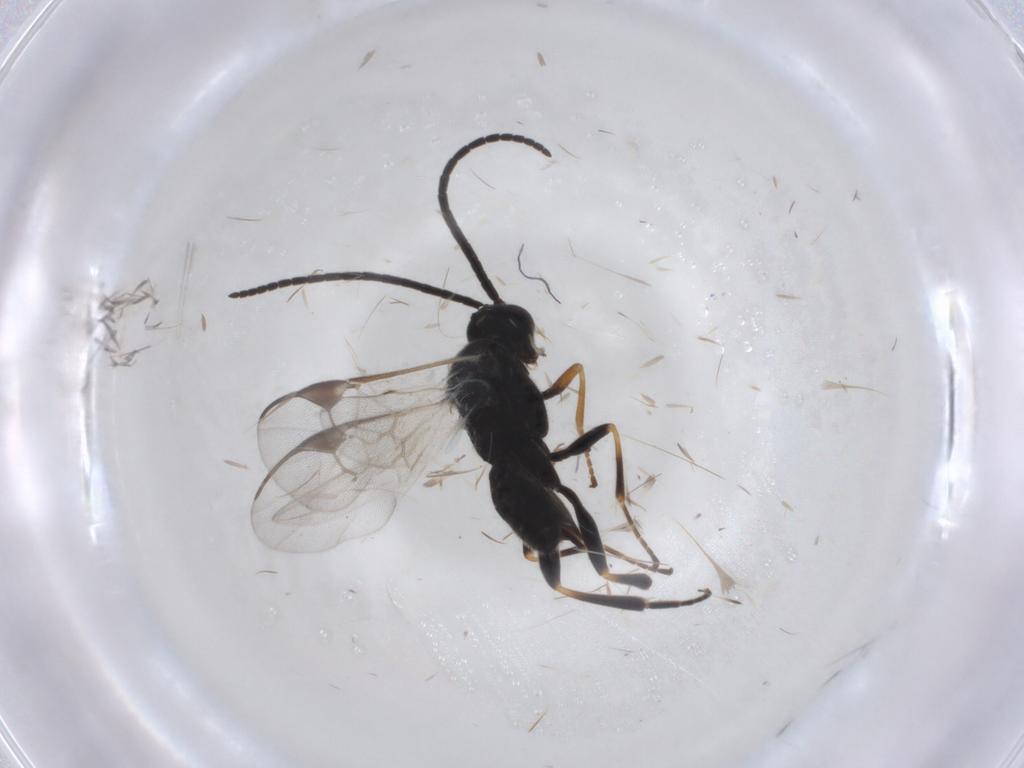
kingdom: Animalia
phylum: Arthropoda
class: Insecta
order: Hymenoptera
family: Braconidae
